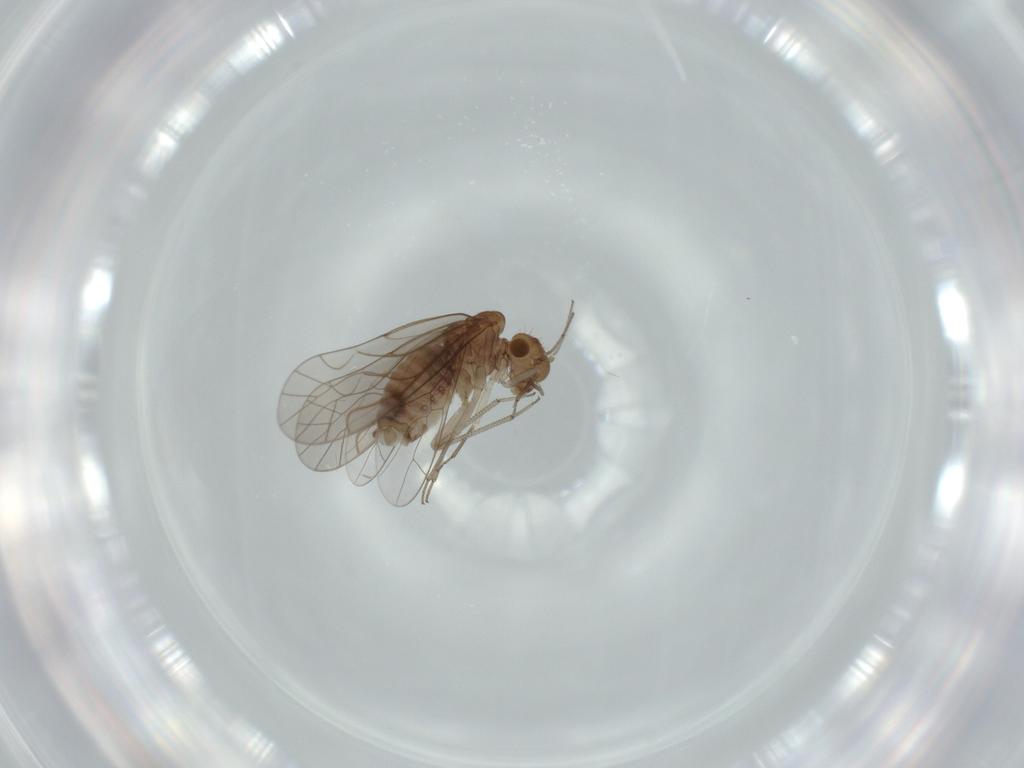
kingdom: Animalia
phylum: Arthropoda
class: Insecta
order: Psocodea
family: Lachesillidae
